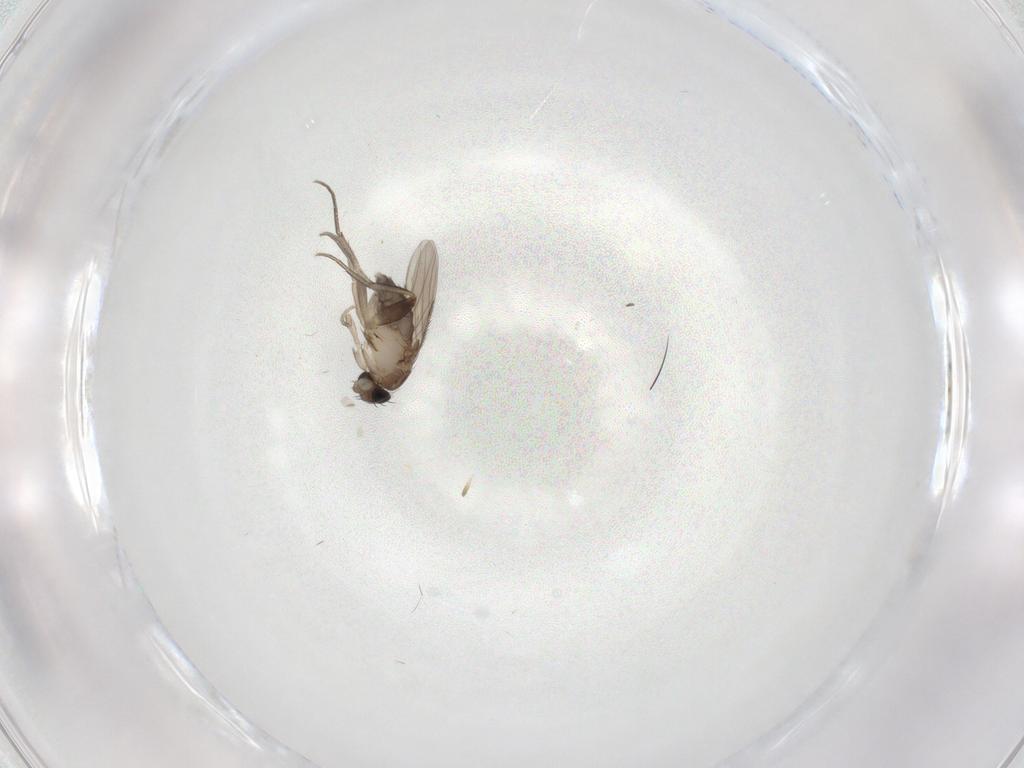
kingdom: Animalia
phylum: Arthropoda
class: Insecta
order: Diptera
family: Phoridae
